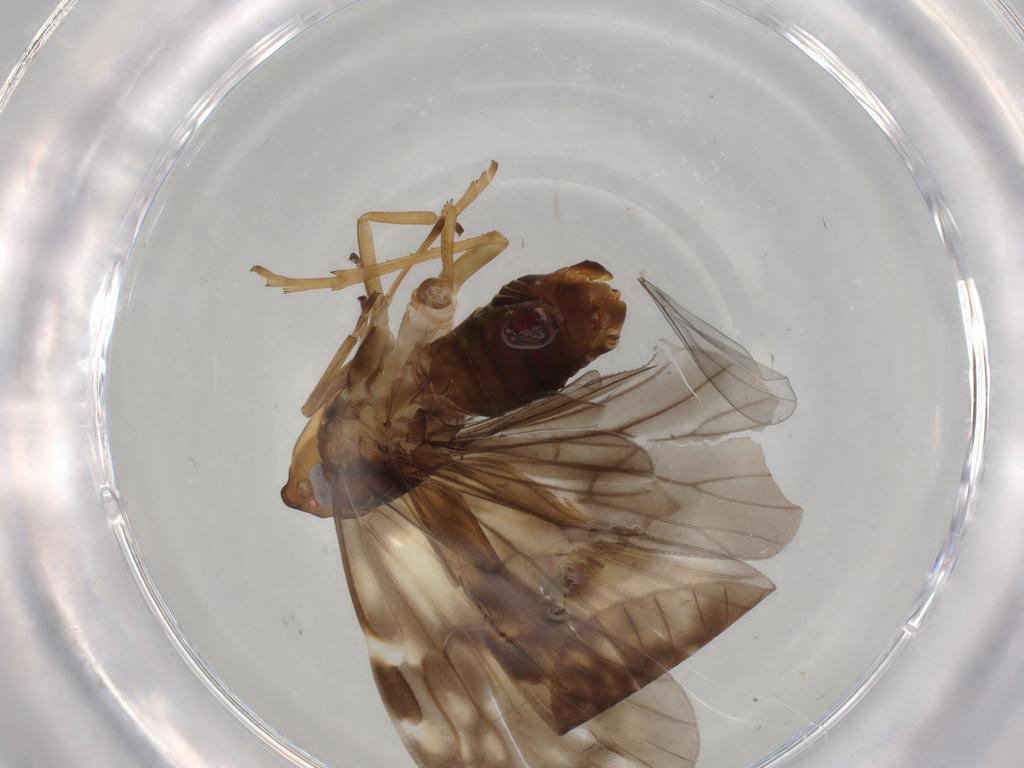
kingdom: Animalia
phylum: Arthropoda
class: Insecta
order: Hemiptera
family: Cixiidae
